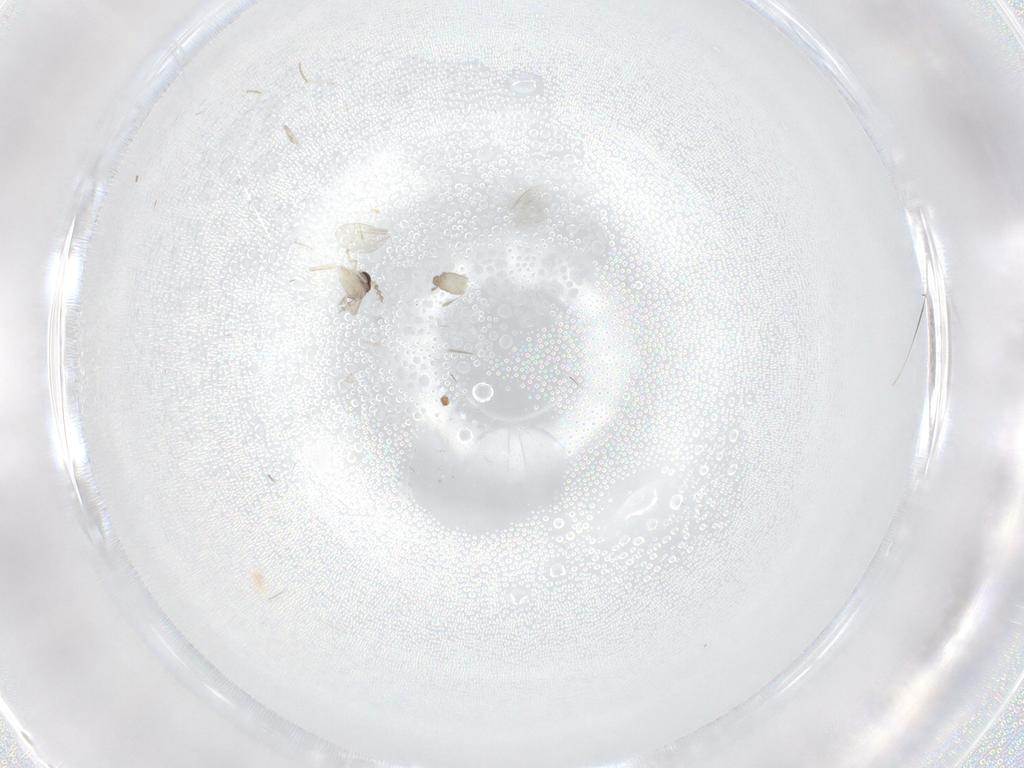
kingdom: Animalia
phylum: Arthropoda
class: Insecta
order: Diptera
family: Cecidomyiidae
